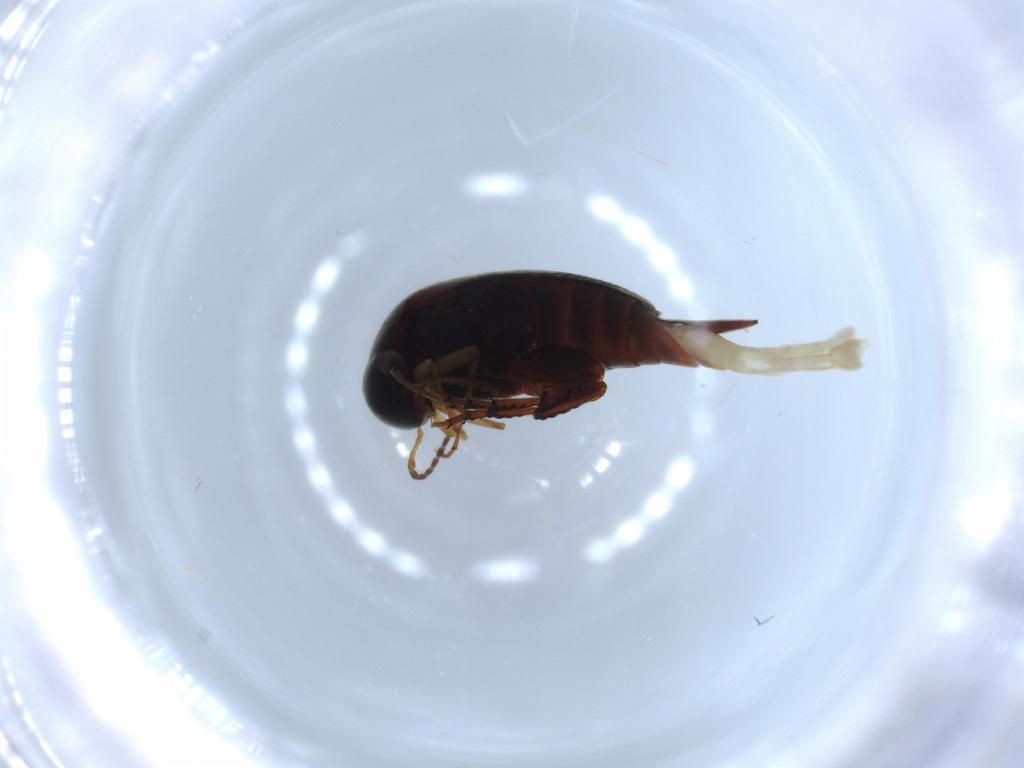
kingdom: Animalia
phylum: Arthropoda
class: Insecta
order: Coleoptera
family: Mordellidae
